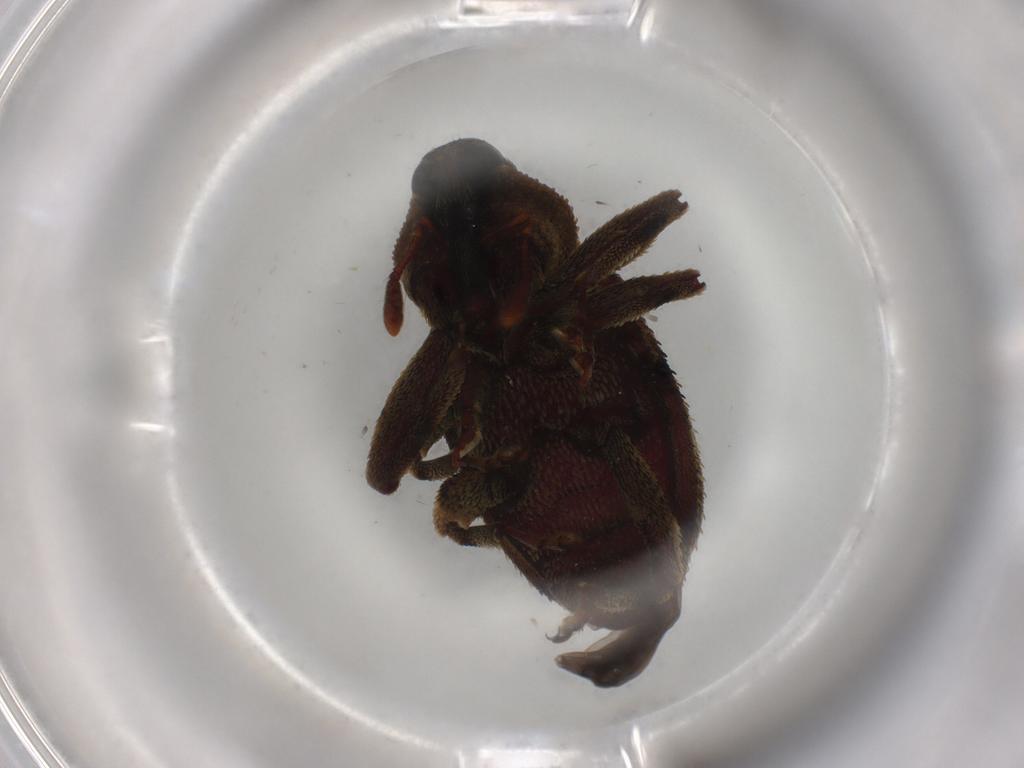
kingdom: Animalia
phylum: Arthropoda
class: Insecta
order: Coleoptera
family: Curculionidae
